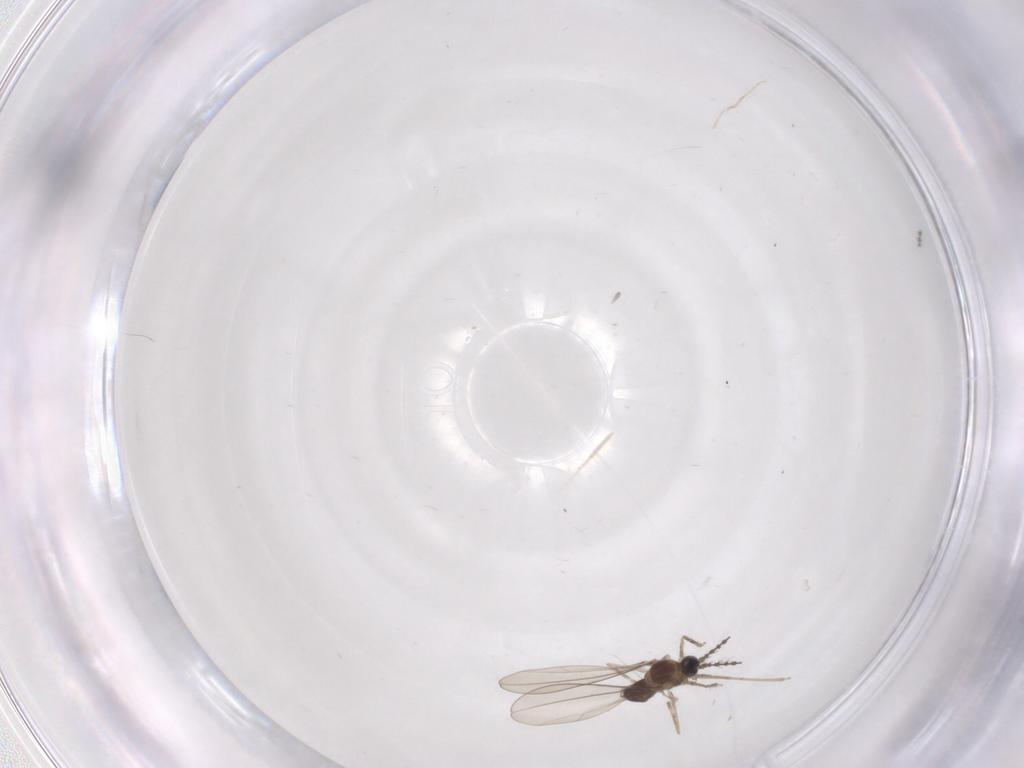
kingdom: Animalia
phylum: Arthropoda
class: Insecta
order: Diptera
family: Cecidomyiidae
